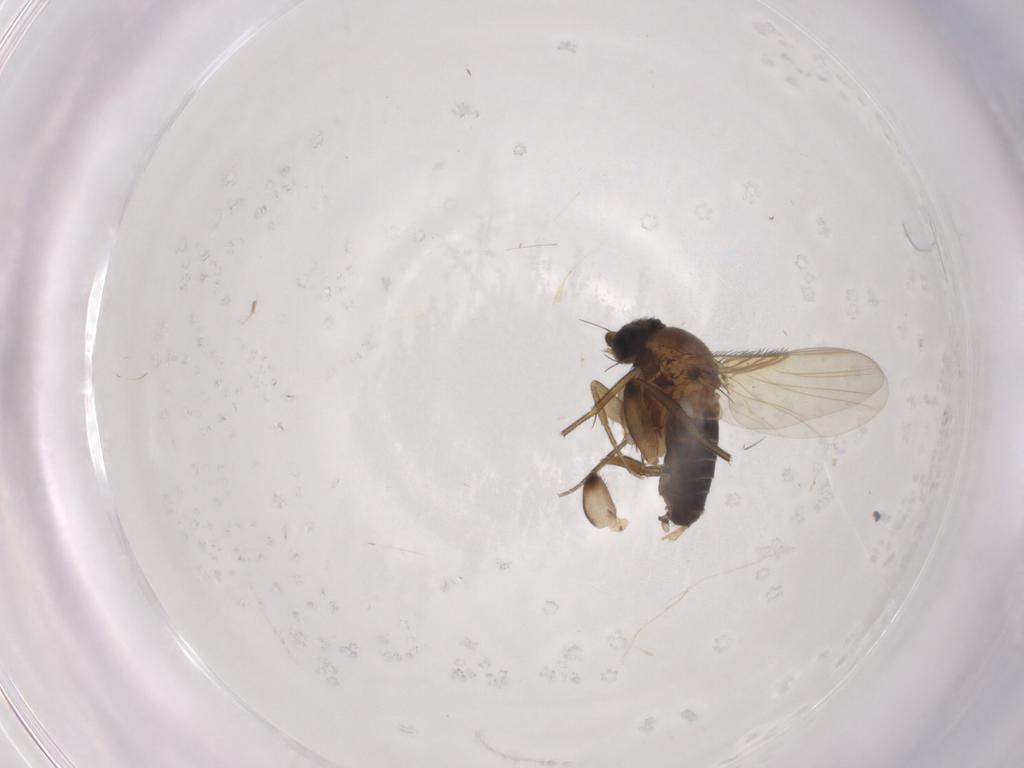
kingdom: Animalia
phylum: Arthropoda
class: Insecta
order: Diptera
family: Phoridae
